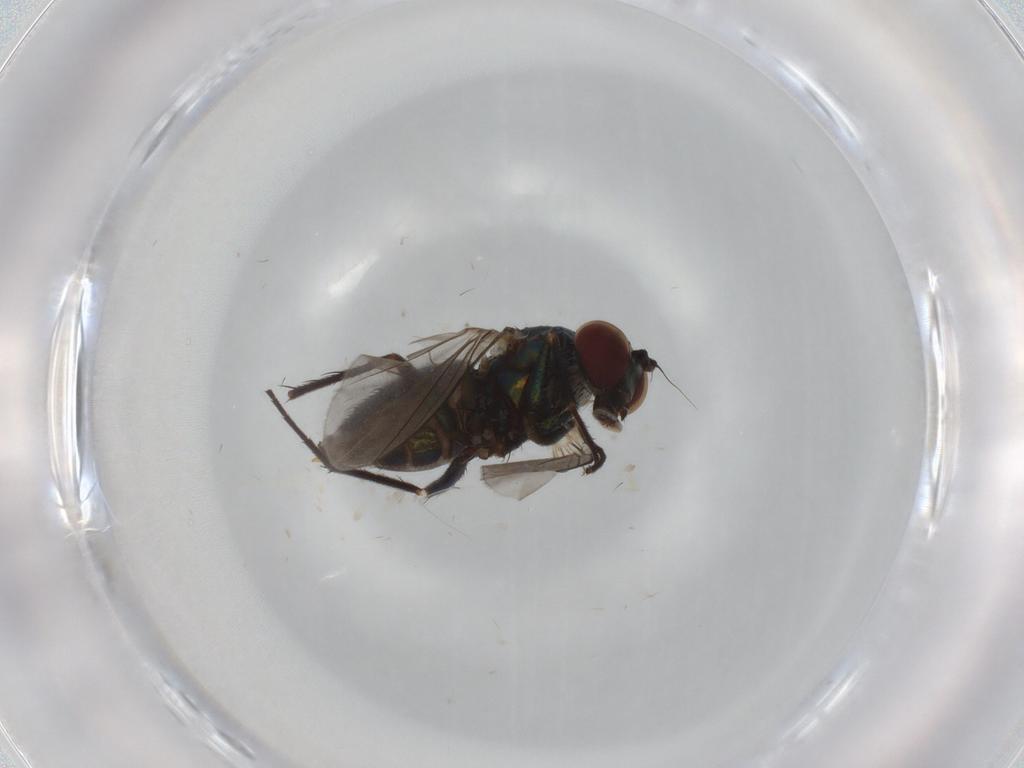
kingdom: Animalia
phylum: Arthropoda
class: Insecta
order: Diptera
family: Dolichopodidae
